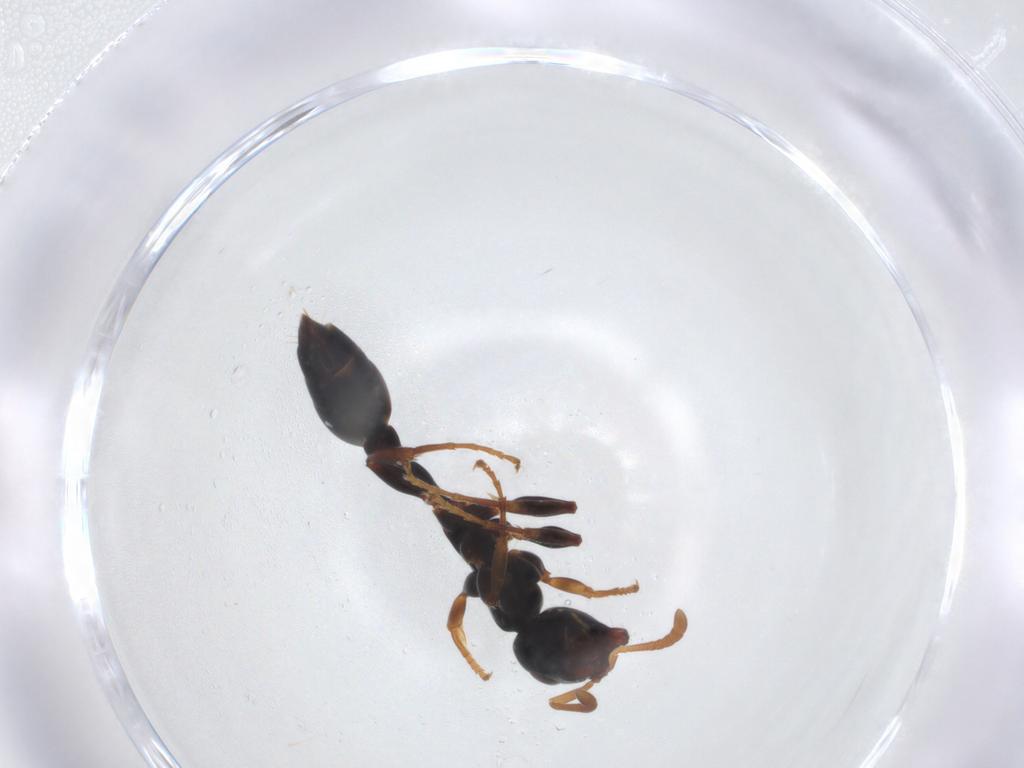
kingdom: Animalia
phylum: Arthropoda
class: Insecta
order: Hymenoptera
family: Formicidae
